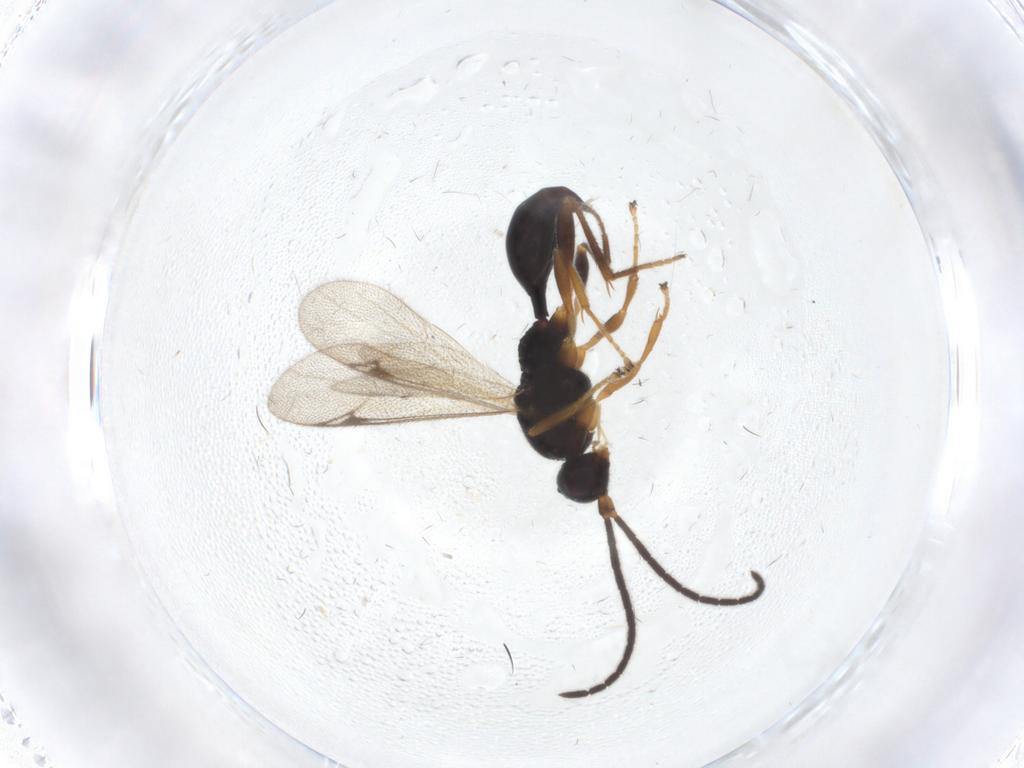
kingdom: Animalia
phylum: Arthropoda
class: Insecta
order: Hymenoptera
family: Proctotrupidae
